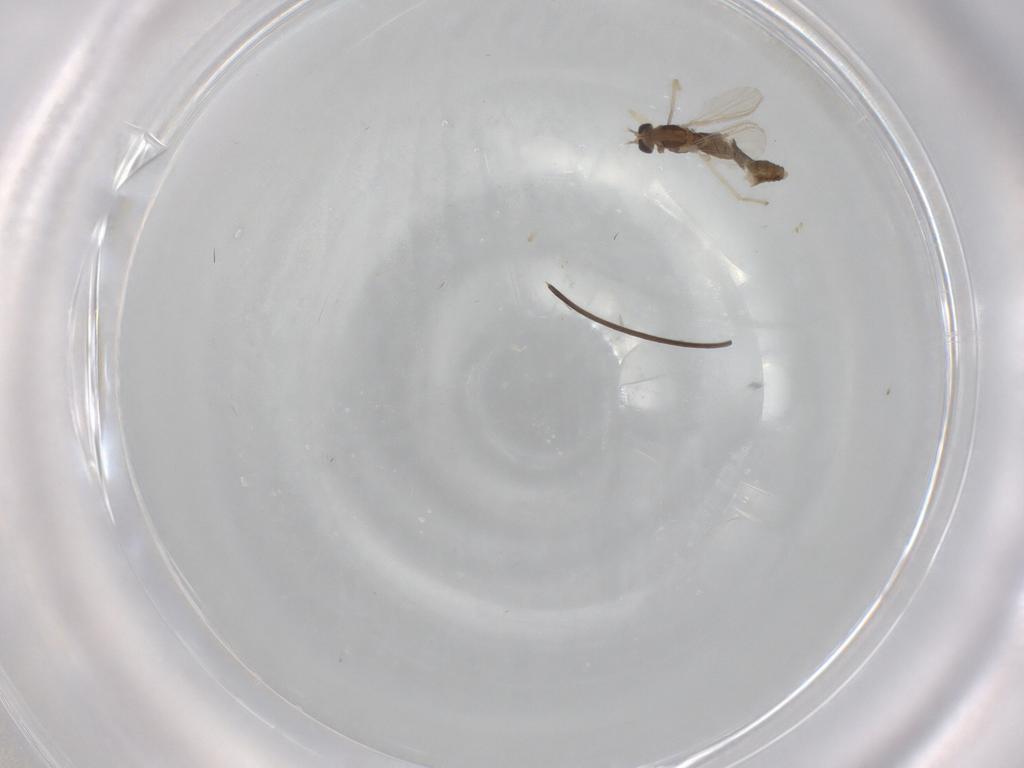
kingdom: Animalia
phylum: Arthropoda
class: Insecta
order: Diptera
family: Chironomidae
